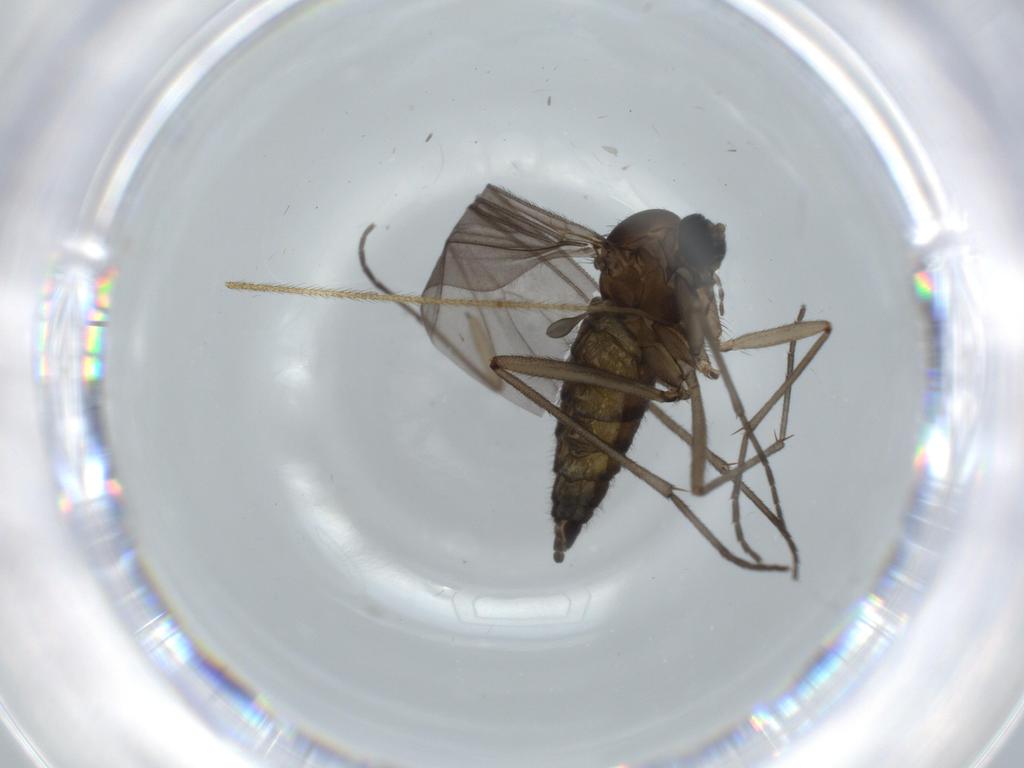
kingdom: Animalia
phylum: Arthropoda
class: Insecta
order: Diptera
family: Sciaridae
